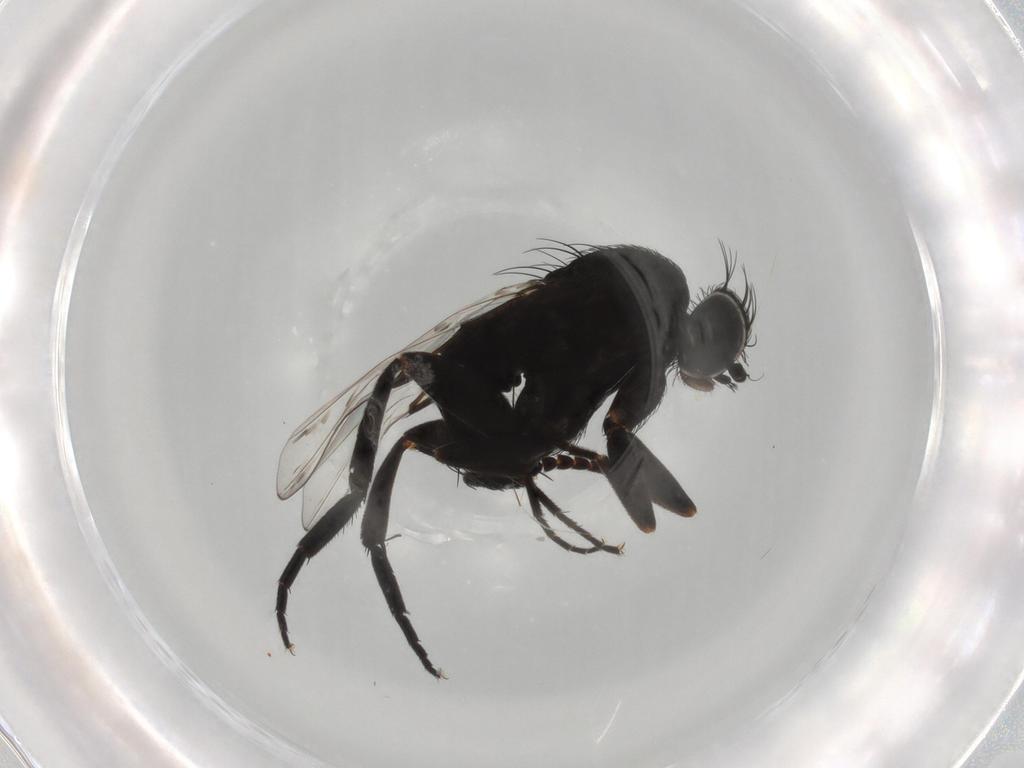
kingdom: Animalia
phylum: Arthropoda
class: Insecta
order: Diptera
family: Phoridae
